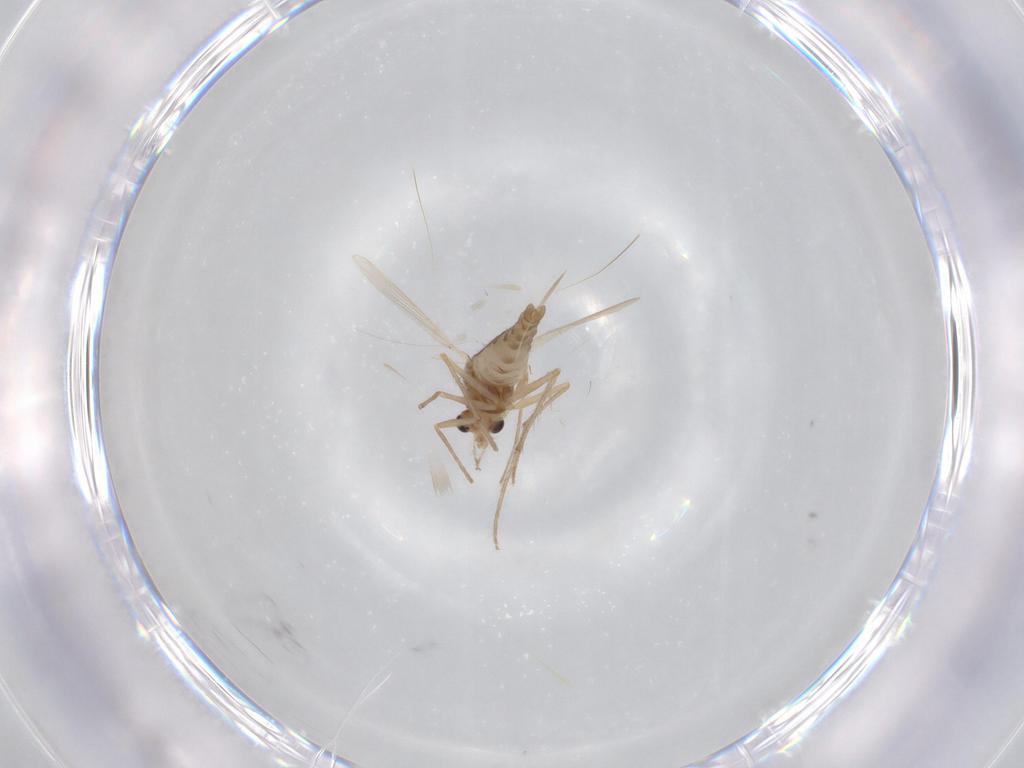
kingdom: Animalia
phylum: Arthropoda
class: Insecta
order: Diptera
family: Chironomidae
